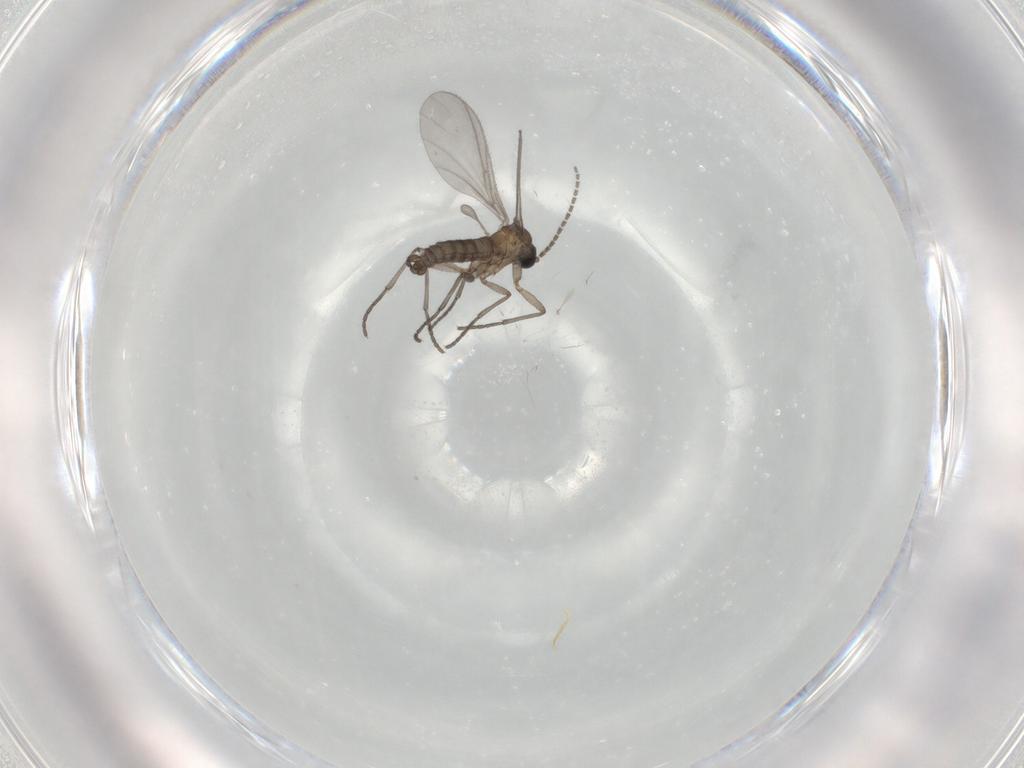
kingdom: Animalia
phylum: Arthropoda
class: Insecta
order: Diptera
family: Sciaridae
